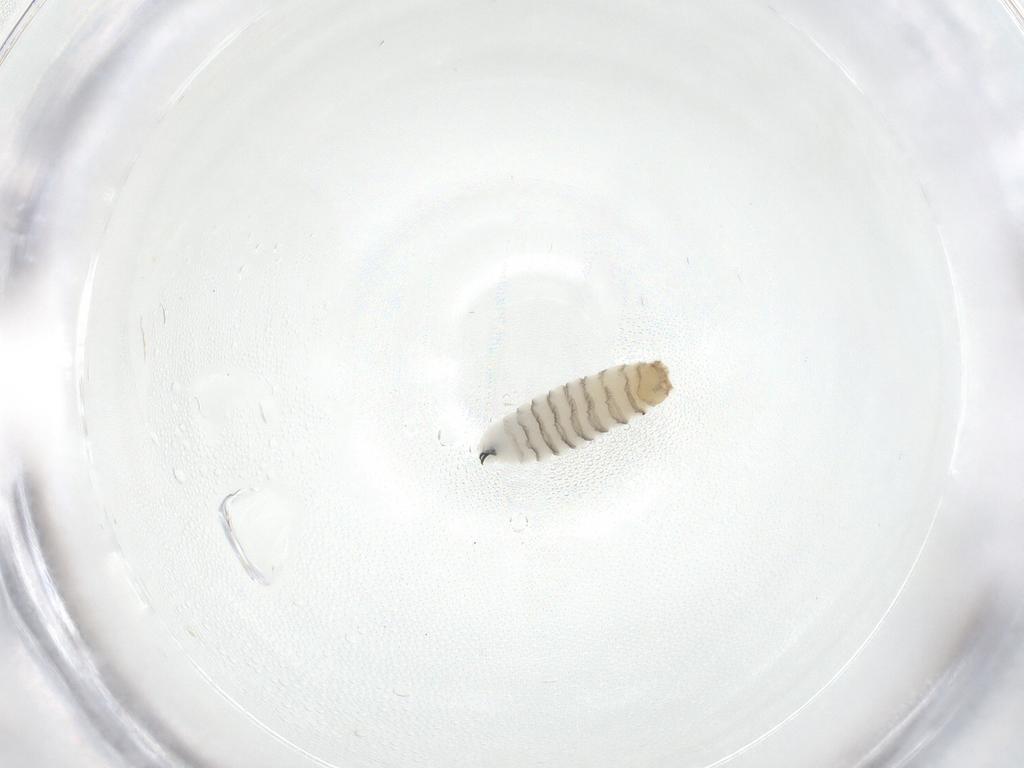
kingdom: Animalia
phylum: Arthropoda
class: Insecta
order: Diptera
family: Sarcophagidae
